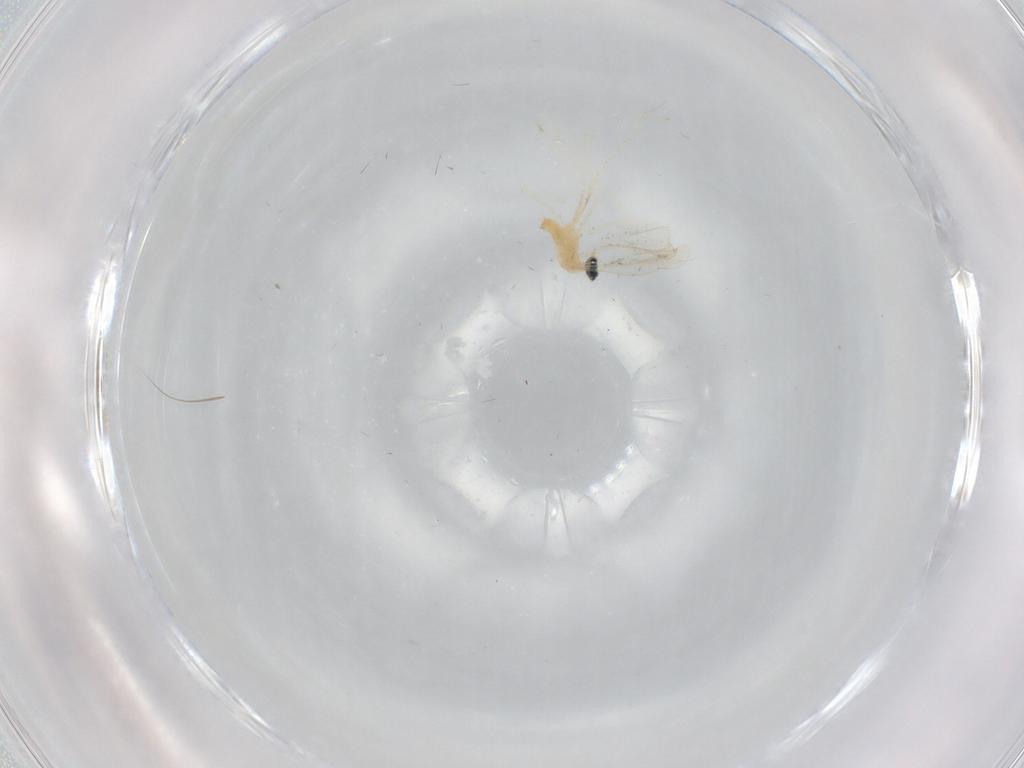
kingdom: Animalia
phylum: Arthropoda
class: Insecta
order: Diptera
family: Cecidomyiidae
